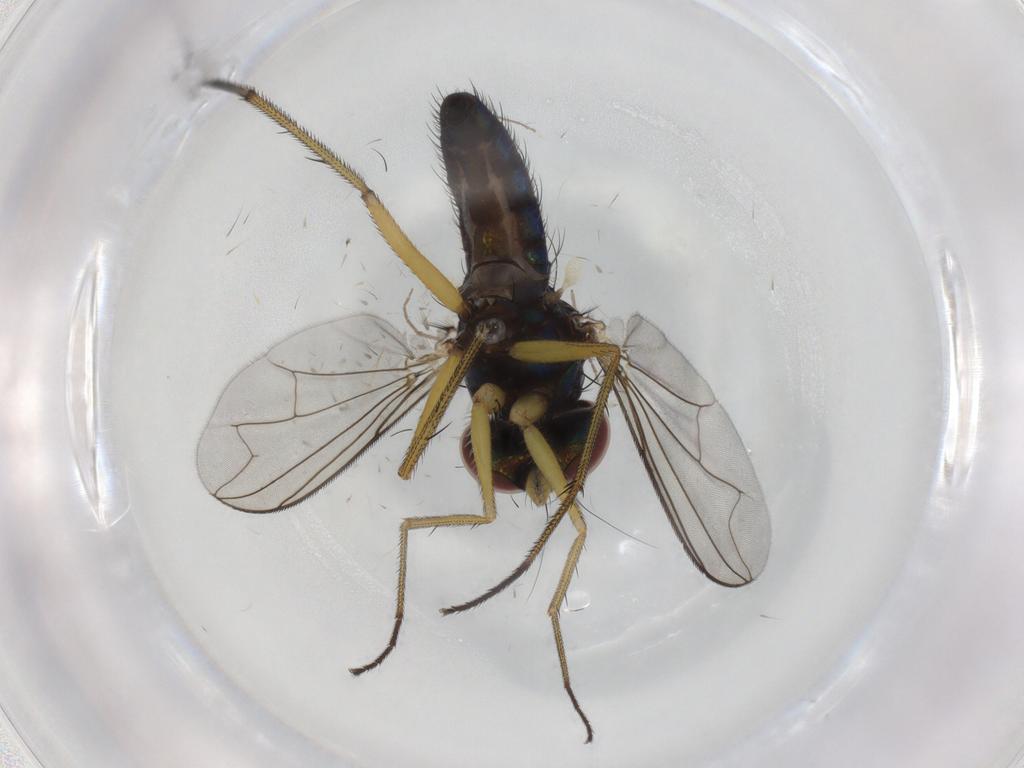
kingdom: Animalia
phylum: Arthropoda
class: Insecta
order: Diptera
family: Dolichopodidae
